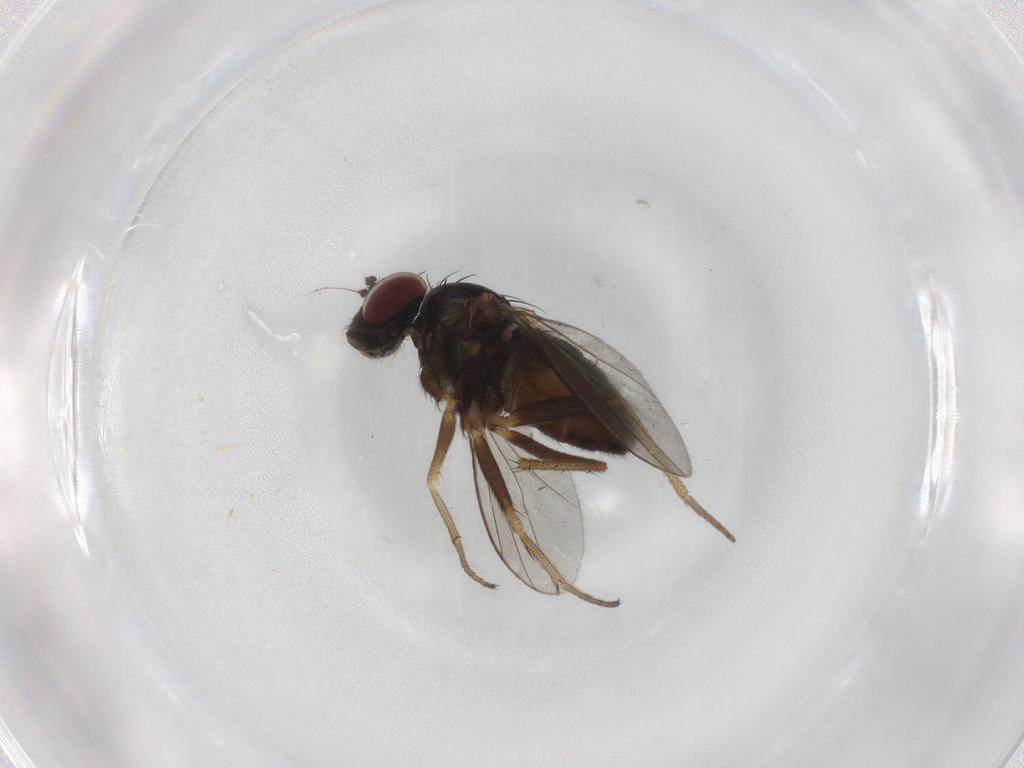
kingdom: Animalia
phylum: Arthropoda
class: Insecta
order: Diptera
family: Dolichopodidae
